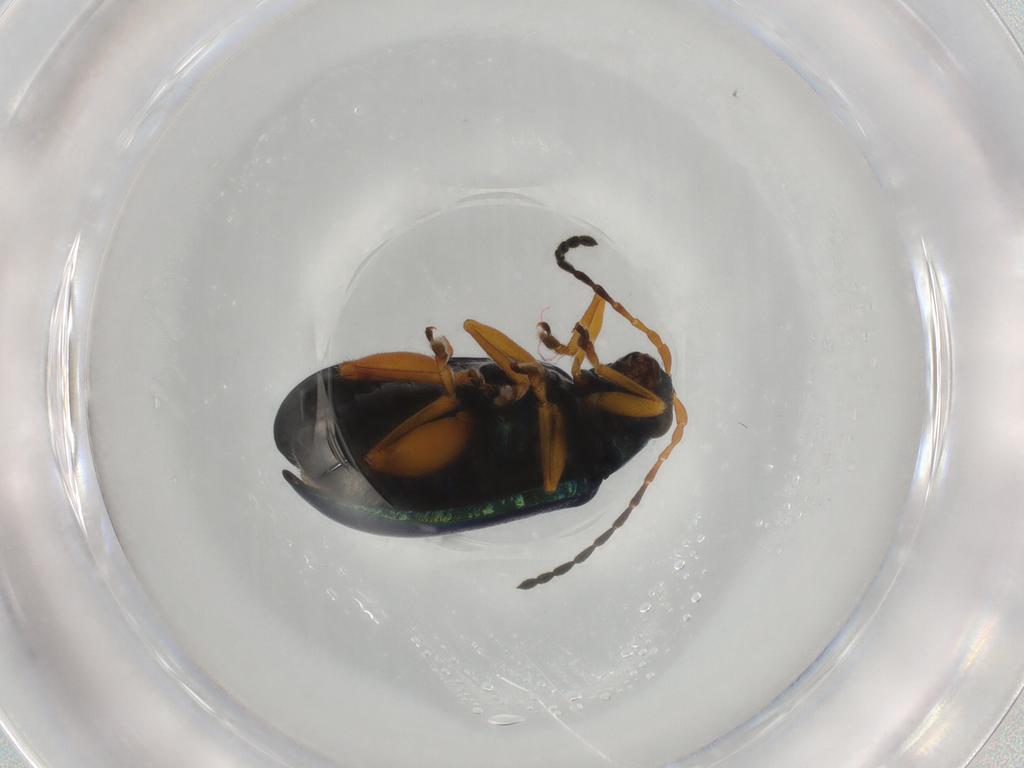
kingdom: Animalia
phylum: Arthropoda
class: Insecta
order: Coleoptera
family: Chrysomelidae
